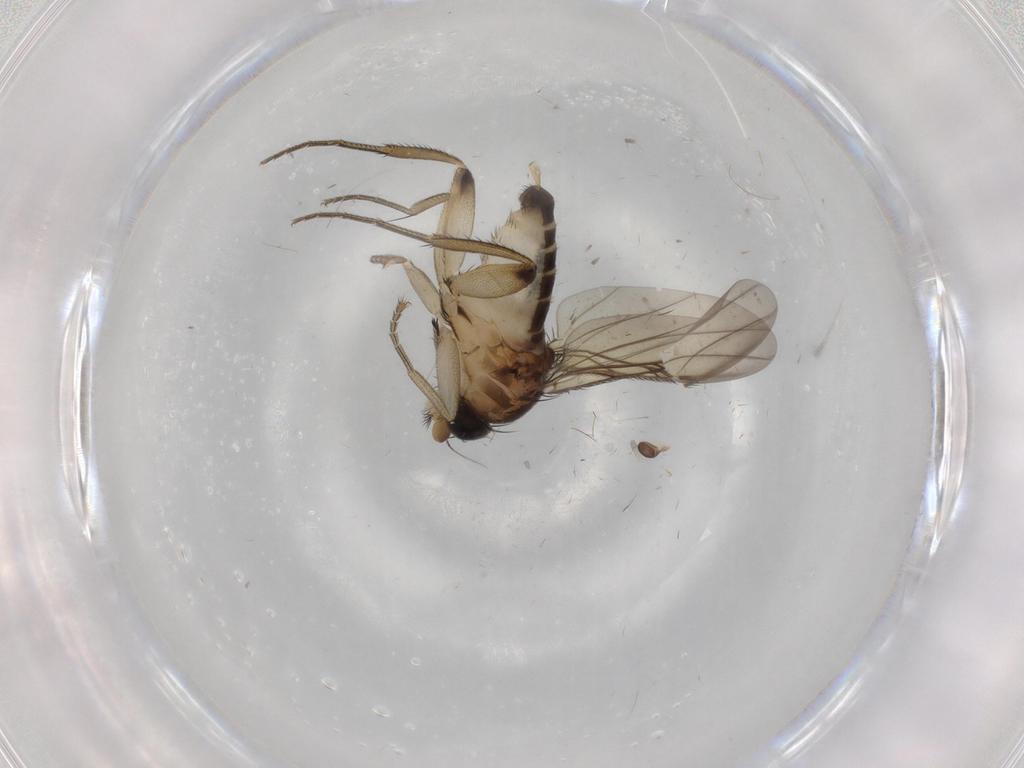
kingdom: Animalia
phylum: Arthropoda
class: Insecta
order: Diptera
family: Phoridae
